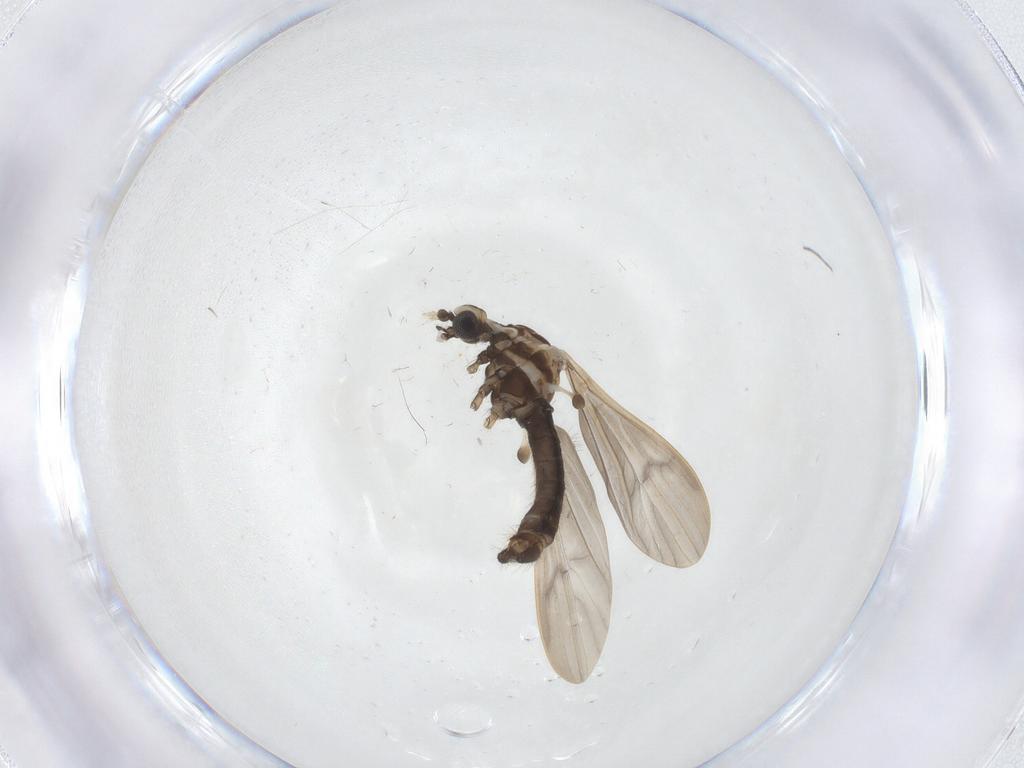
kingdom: Animalia
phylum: Arthropoda
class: Insecta
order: Diptera
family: Limoniidae
